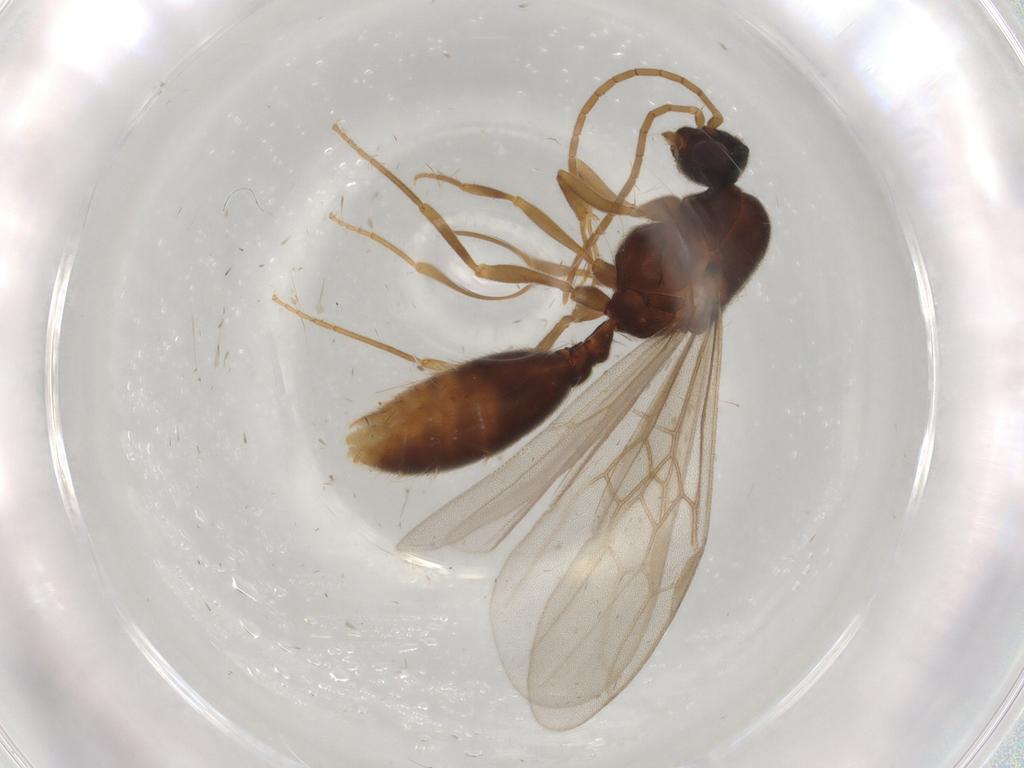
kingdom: Animalia
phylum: Arthropoda
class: Insecta
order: Hymenoptera
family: Formicidae
